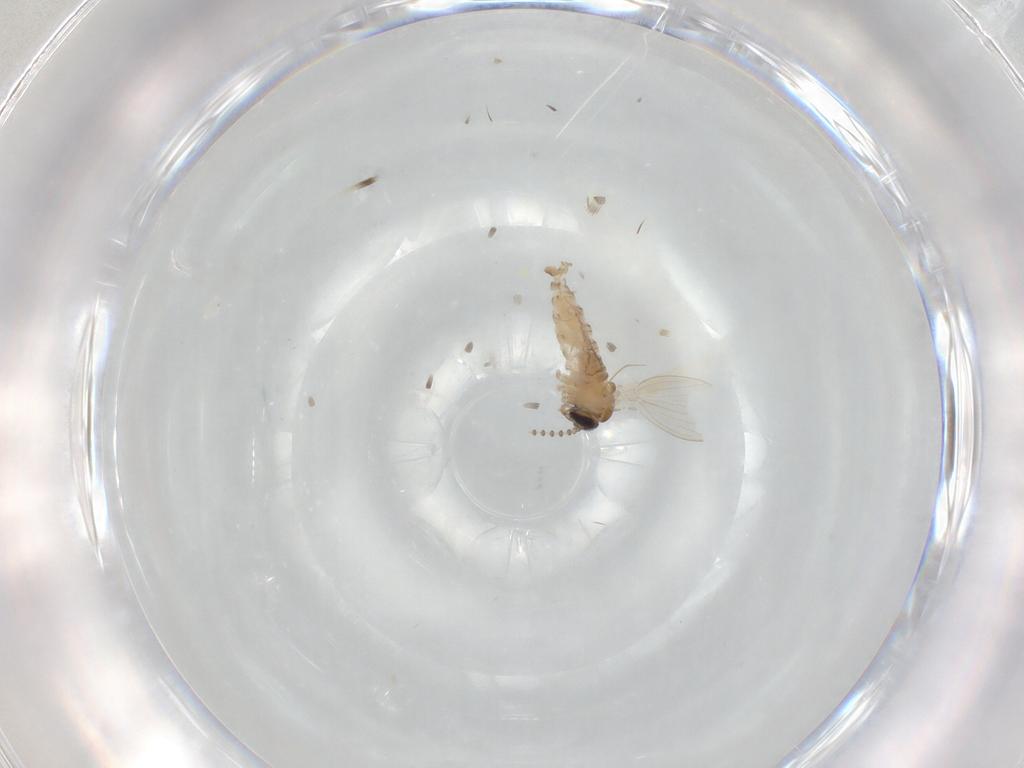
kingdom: Animalia
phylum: Arthropoda
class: Insecta
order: Diptera
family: Psychodidae
